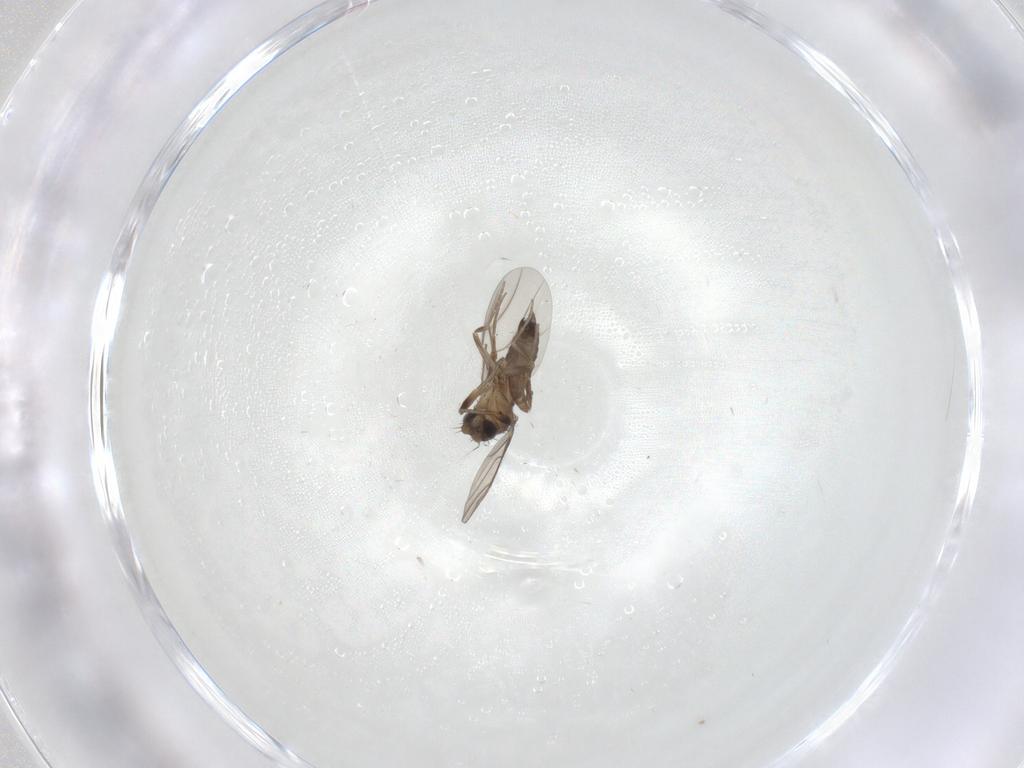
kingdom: Animalia
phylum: Arthropoda
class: Insecta
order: Diptera
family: Phoridae
